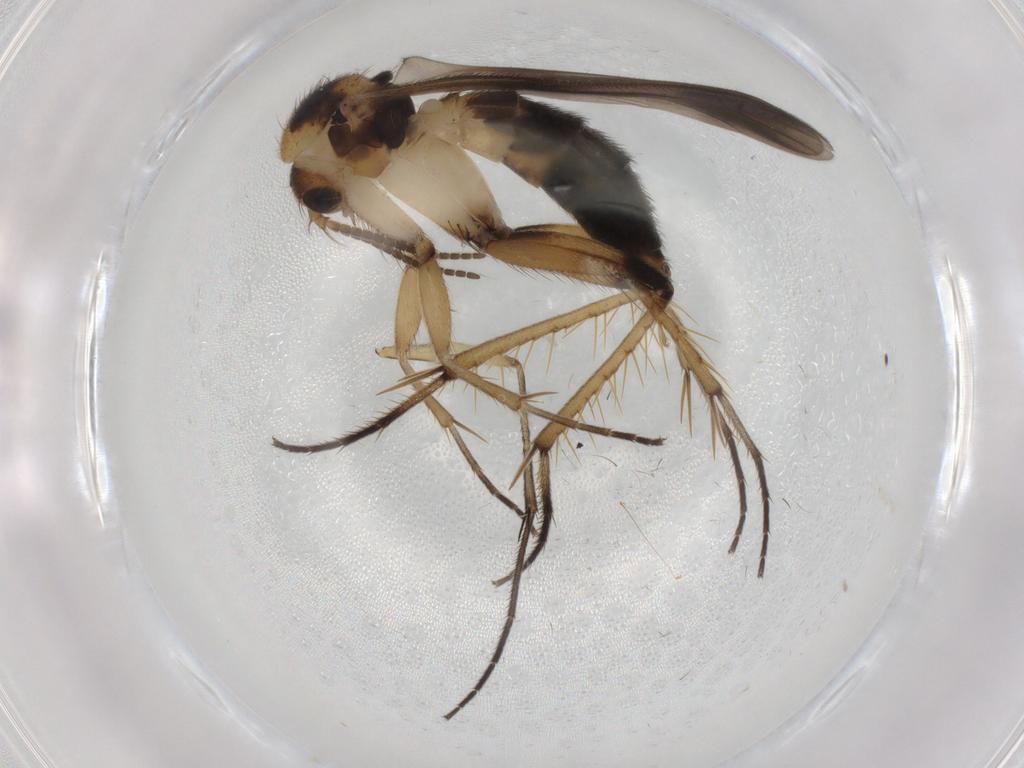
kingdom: Animalia
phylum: Arthropoda
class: Insecta
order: Diptera
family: Mycetophilidae
